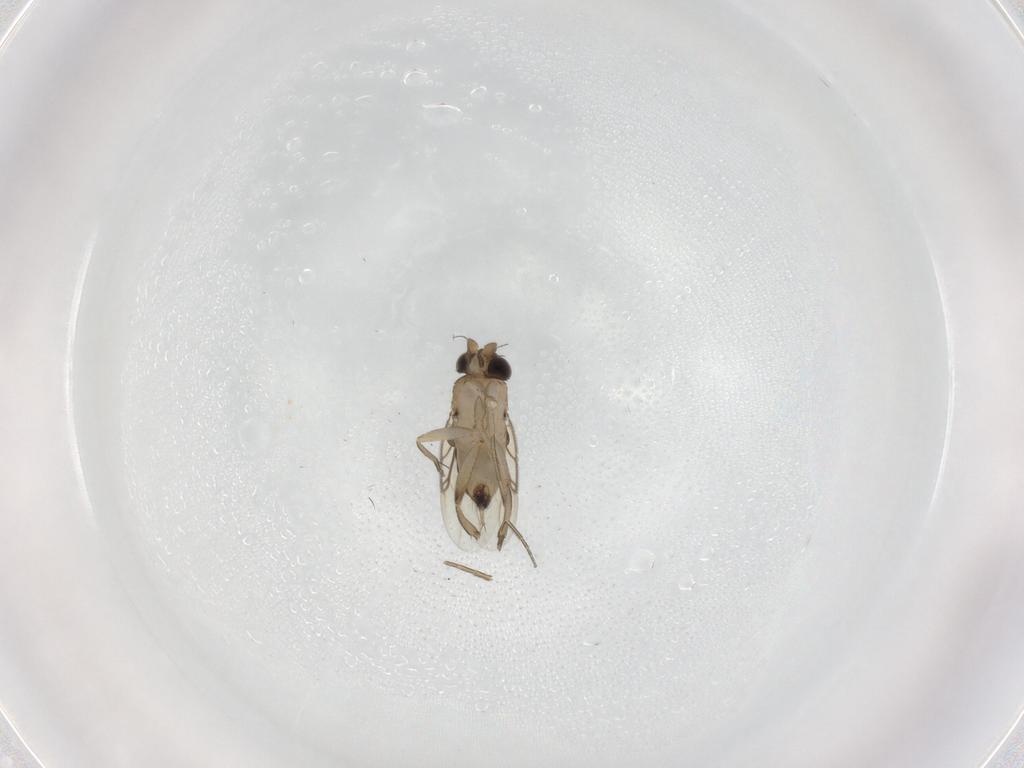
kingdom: Animalia
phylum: Arthropoda
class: Insecta
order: Diptera
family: Phoridae
